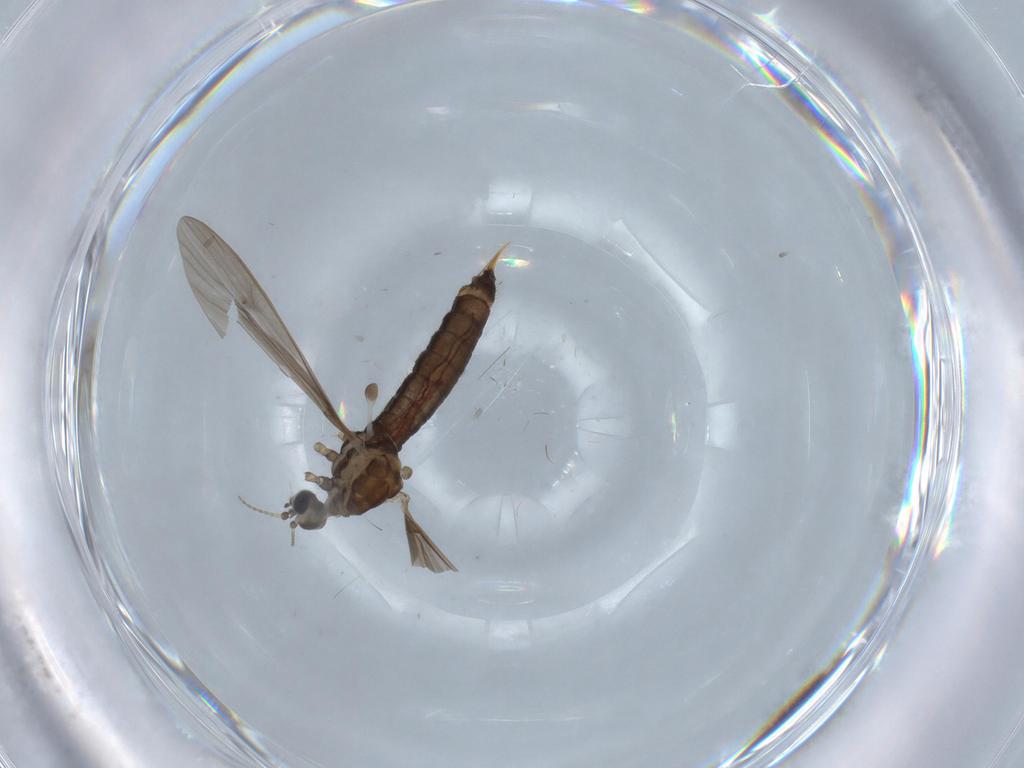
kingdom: Animalia
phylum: Arthropoda
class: Insecta
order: Diptera
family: Limoniidae
